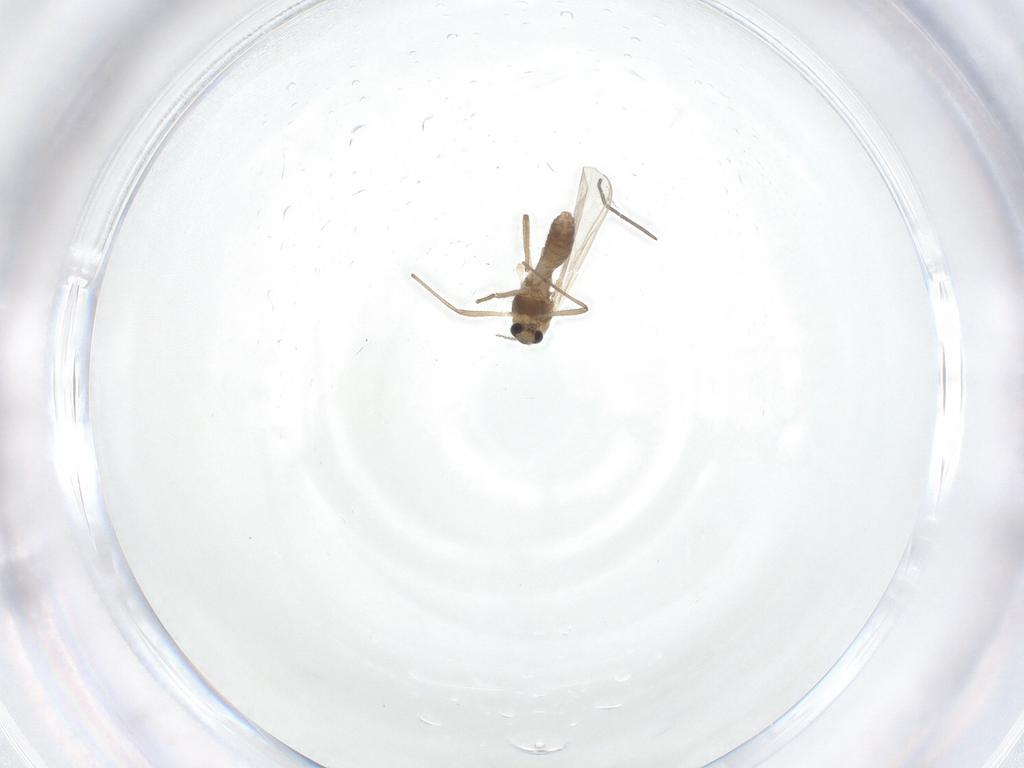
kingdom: Animalia
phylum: Arthropoda
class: Insecta
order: Diptera
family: Chironomidae
